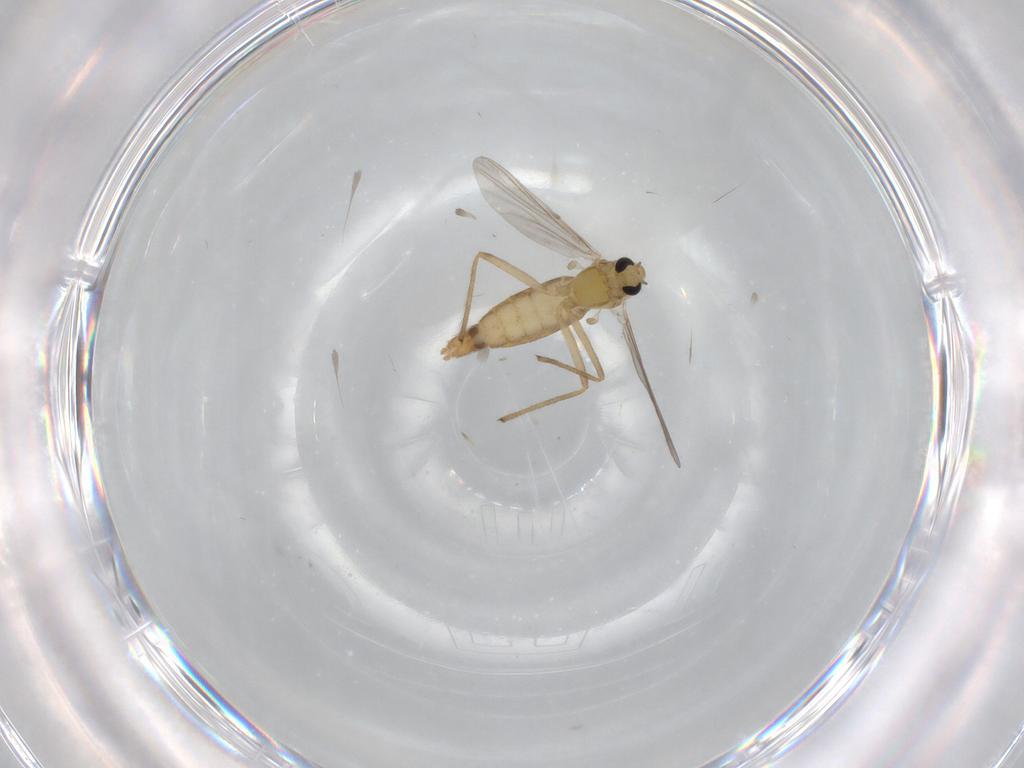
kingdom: Animalia
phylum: Arthropoda
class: Insecta
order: Diptera
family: Chironomidae
